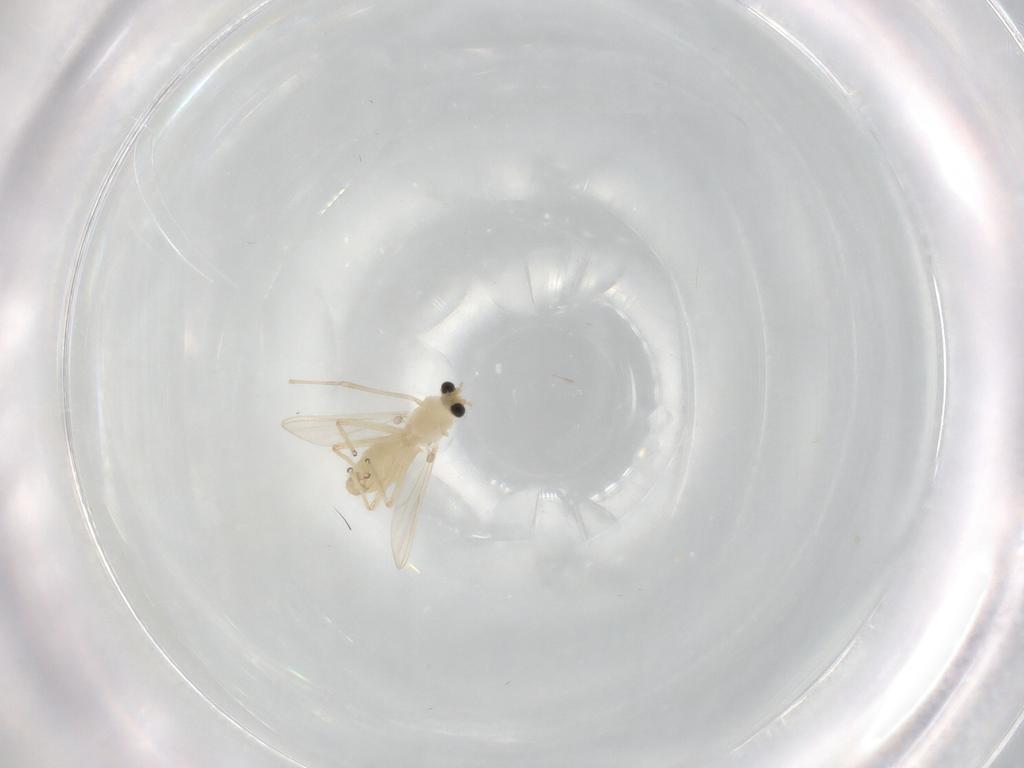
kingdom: Animalia
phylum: Arthropoda
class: Insecta
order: Diptera
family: Chironomidae
